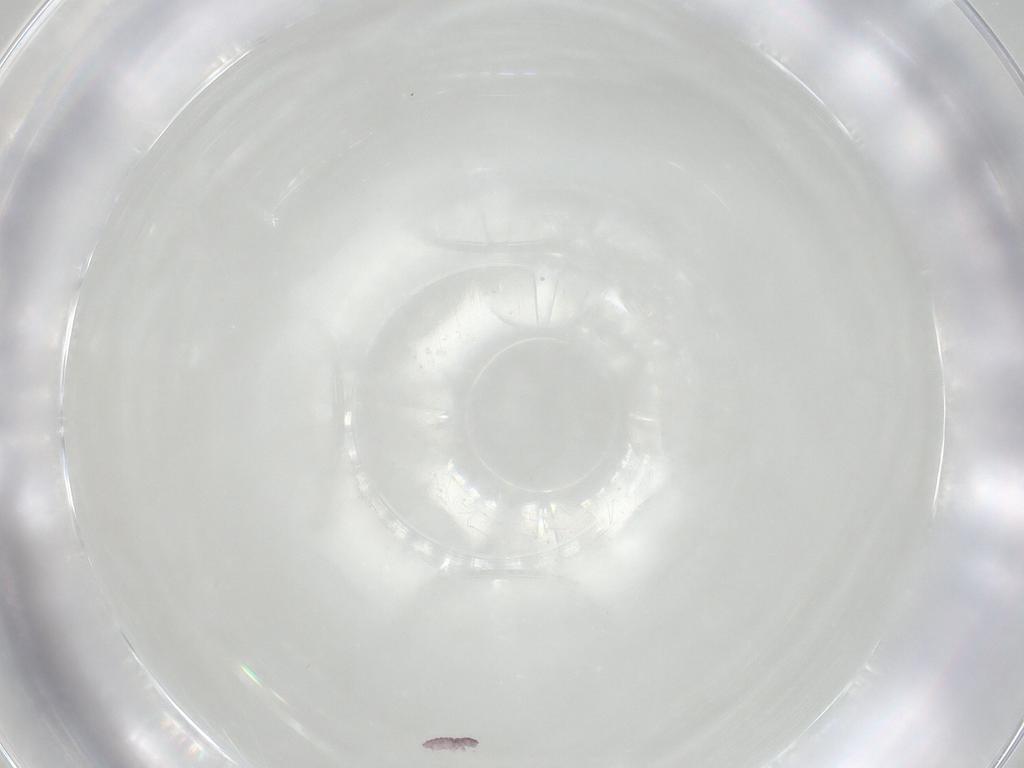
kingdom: Animalia
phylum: Arthropoda
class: Collembola
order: Poduromorpha
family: Hypogastruridae
